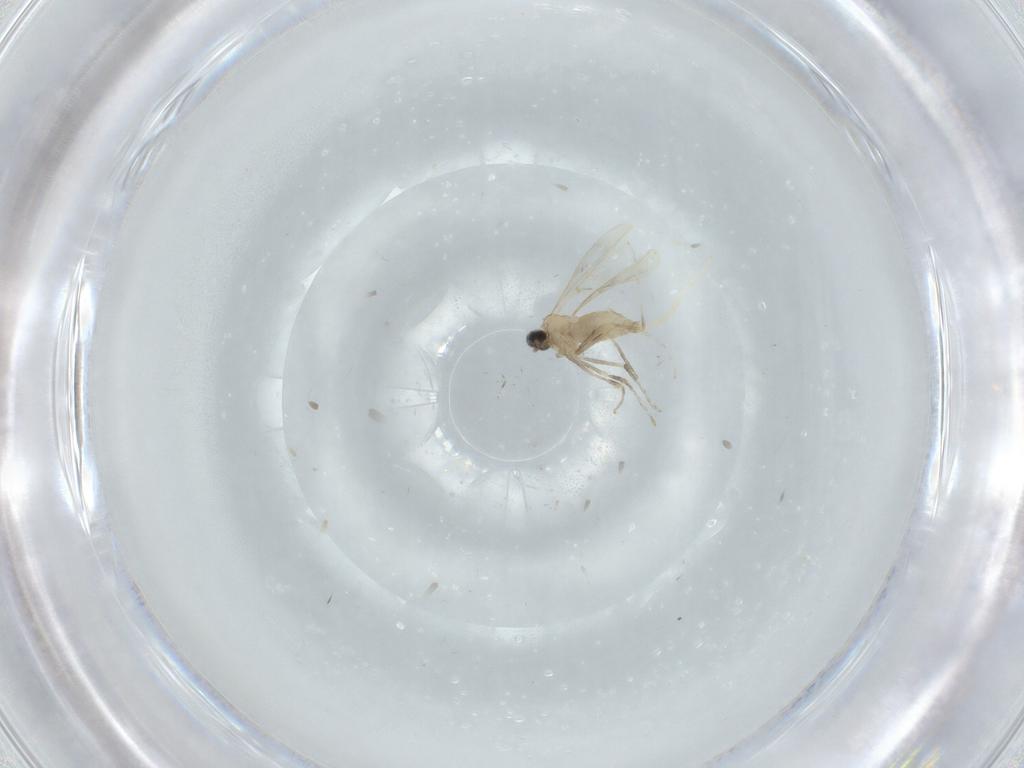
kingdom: Animalia
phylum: Arthropoda
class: Insecta
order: Diptera
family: Cecidomyiidae
